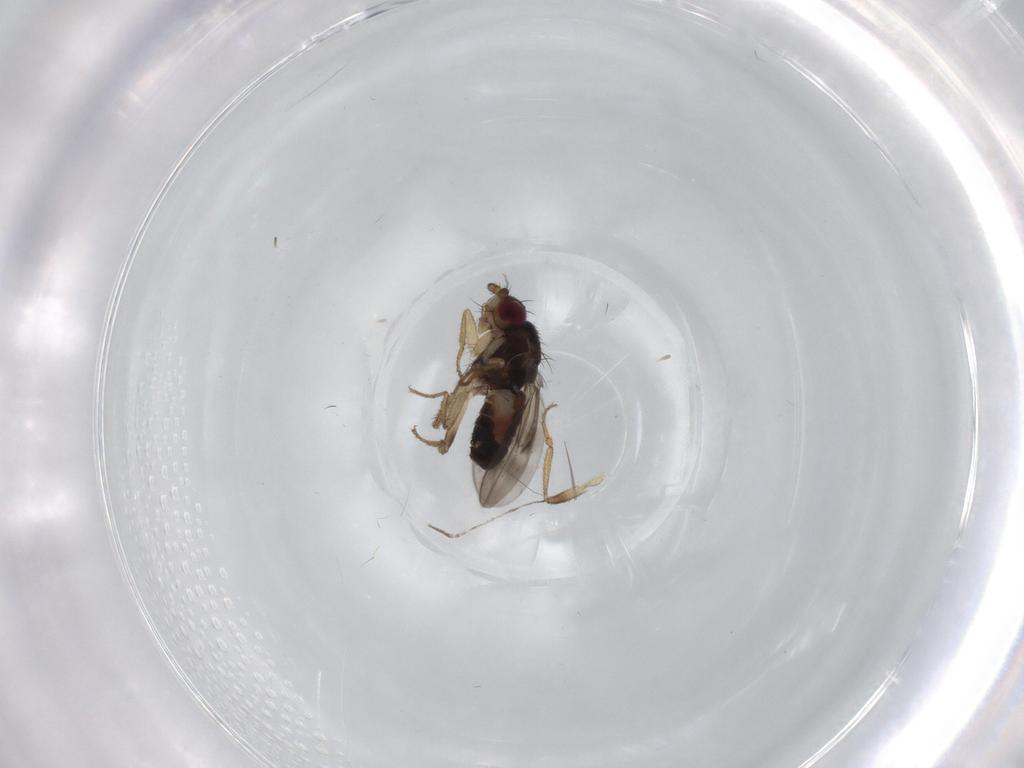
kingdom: Animalia
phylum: Arthropoda
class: Insecta
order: Diptera
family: Sphaeroceridae
